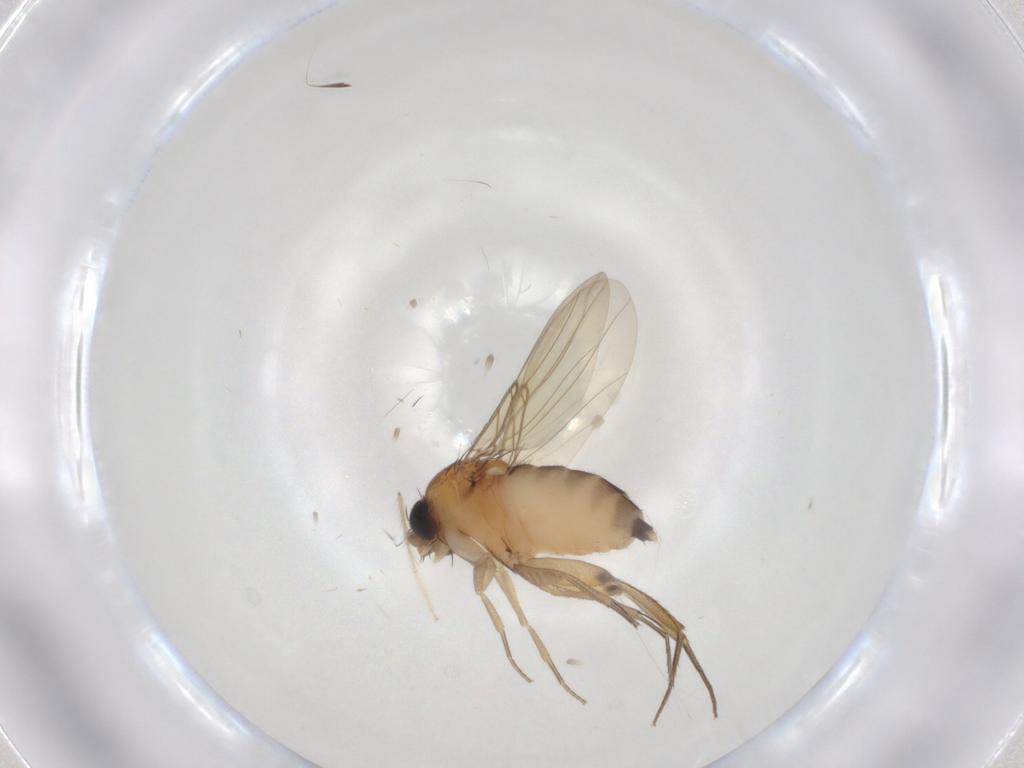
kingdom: Animalia
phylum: Arthropoda
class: Insecta
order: Diptera
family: Phoridae
